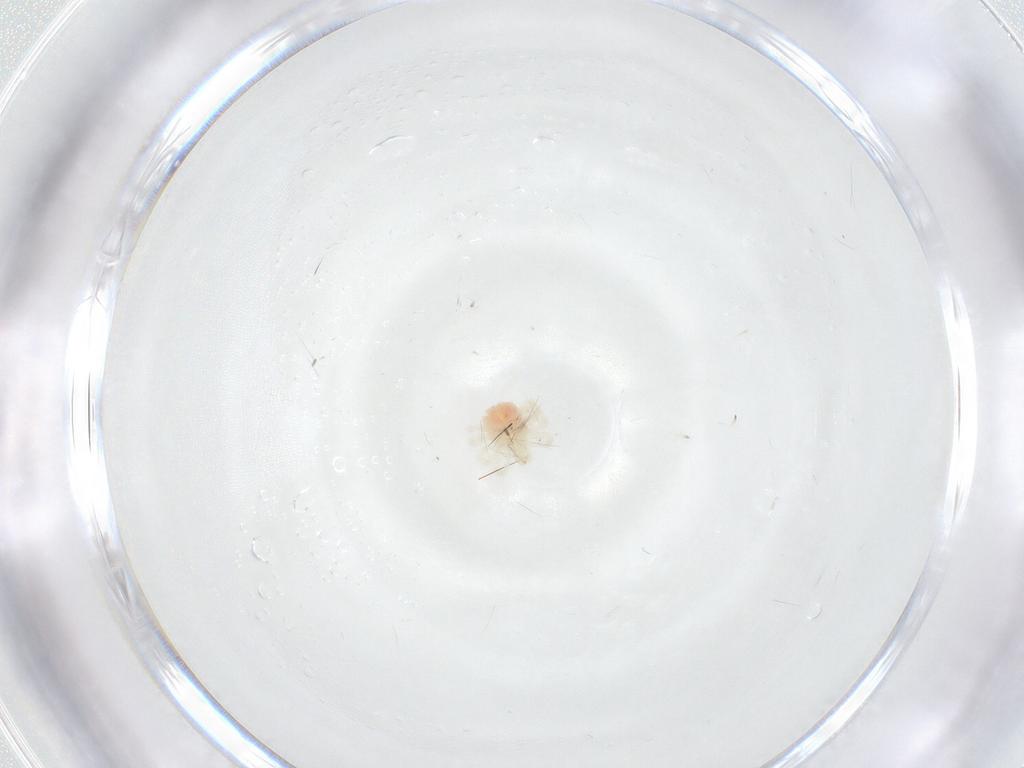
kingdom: Animalia
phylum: Arthropoda
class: Arachnida
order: Trombidiformes
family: Anystidae
